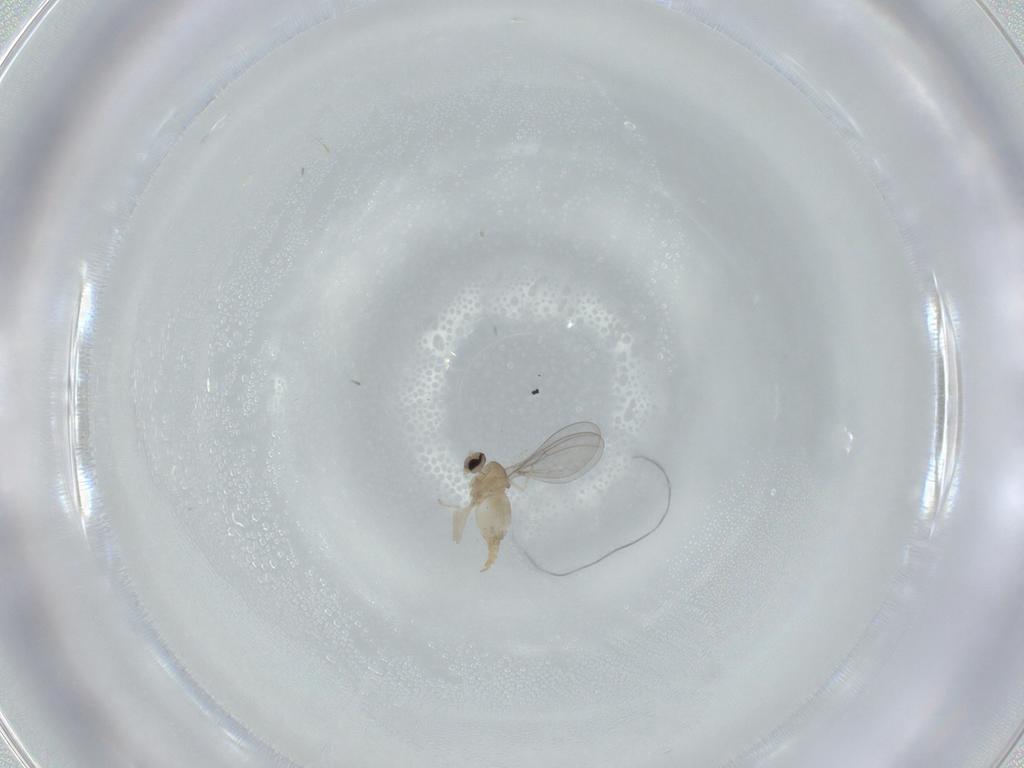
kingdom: Animalia
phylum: Arthropoda
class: Insecta
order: Diptera
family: Cecidomyiidae
